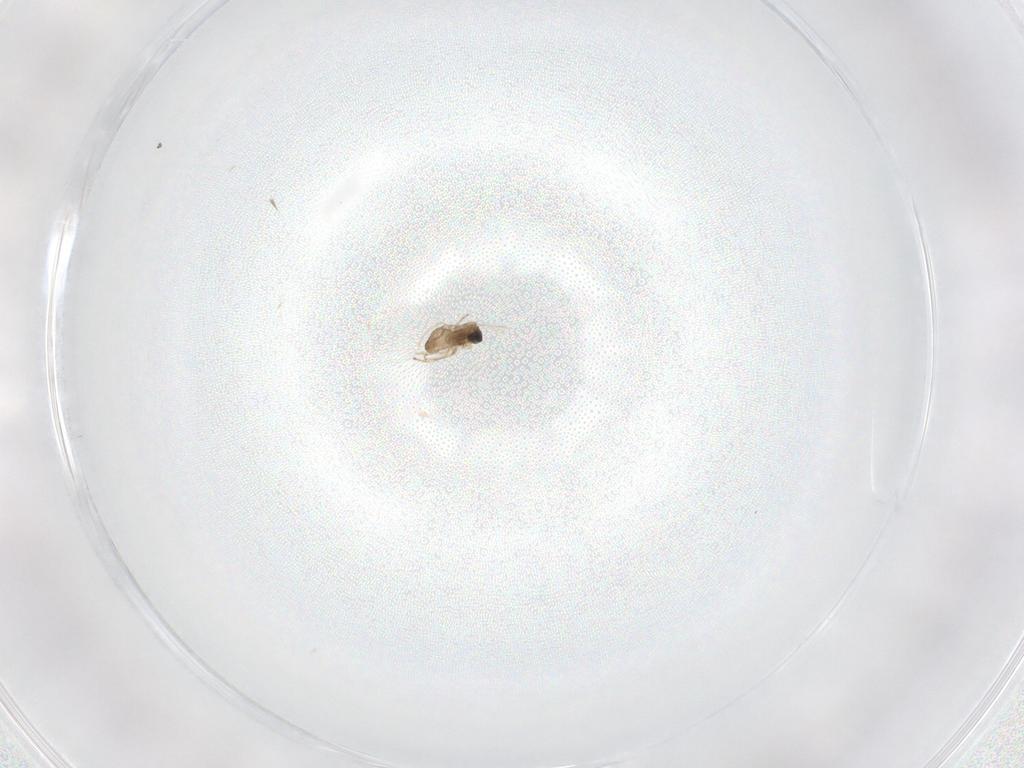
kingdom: Animalia
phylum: Arthropoda
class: Insecta
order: Diptera
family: Cecidomyiidae
